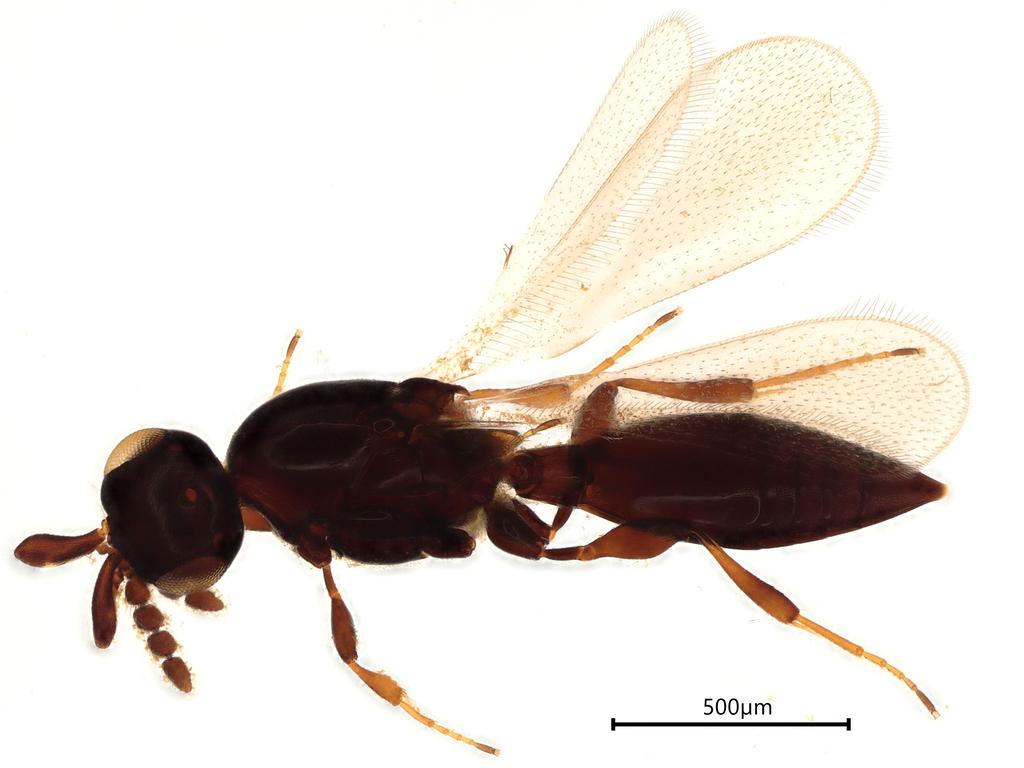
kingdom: Animalia
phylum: Arthropoda
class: Insecta
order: Hymenoptera
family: Platygastridae
